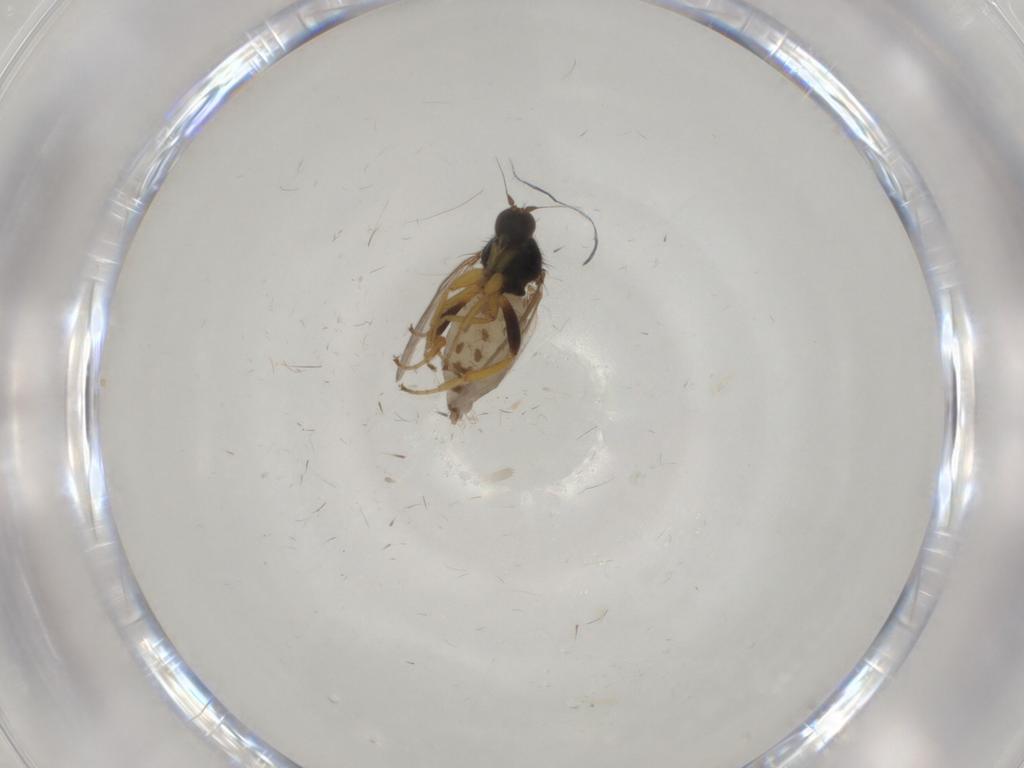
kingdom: Animalia
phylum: Arthropoda
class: Insecta
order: Diptera
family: Hybotidae
